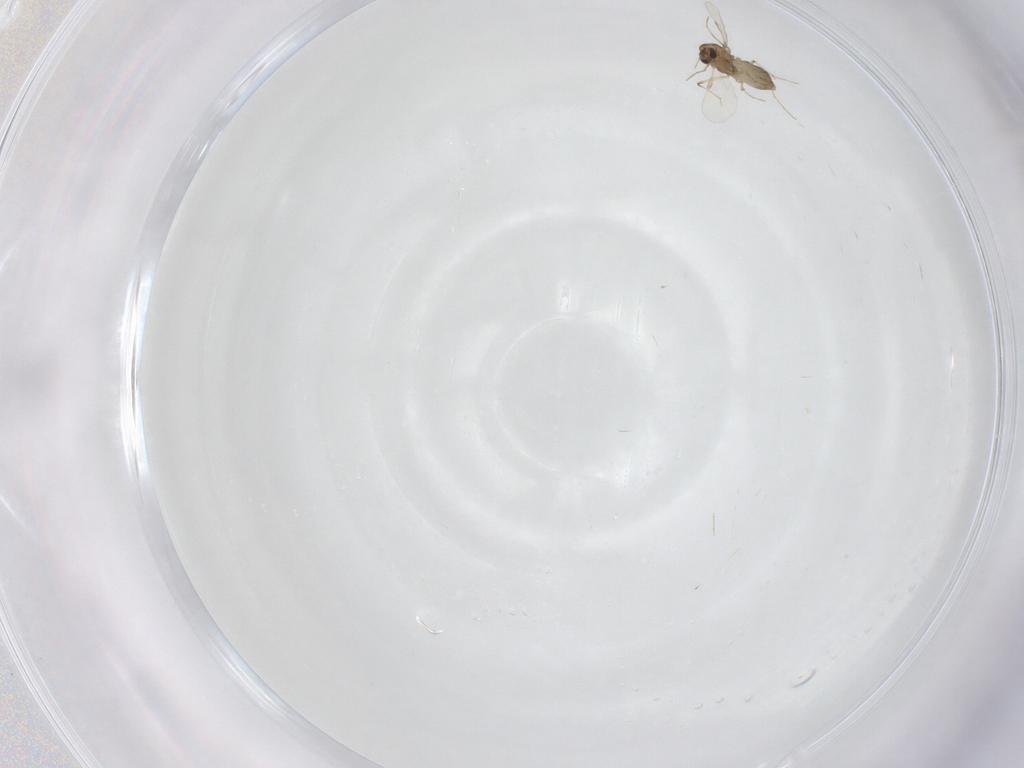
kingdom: Animalia
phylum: Arthropoda
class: Insecta
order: Diptera
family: Chironomidae
